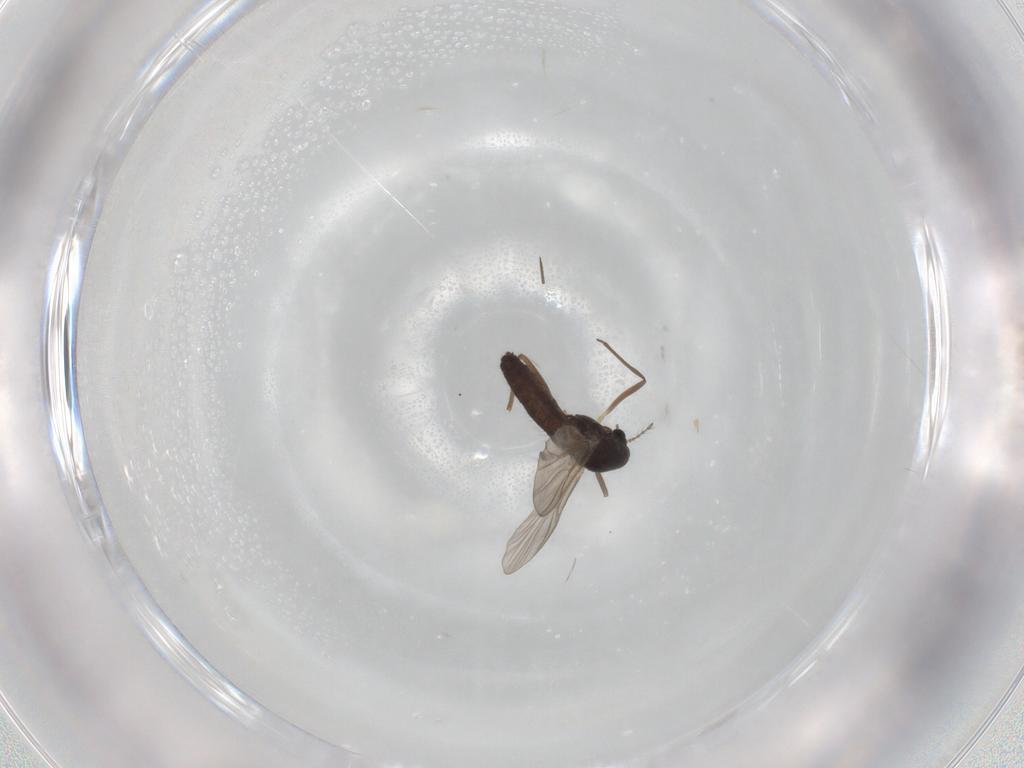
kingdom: Animalia
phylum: Arthropoda
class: Insecta
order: Diptera
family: Chironomidae
